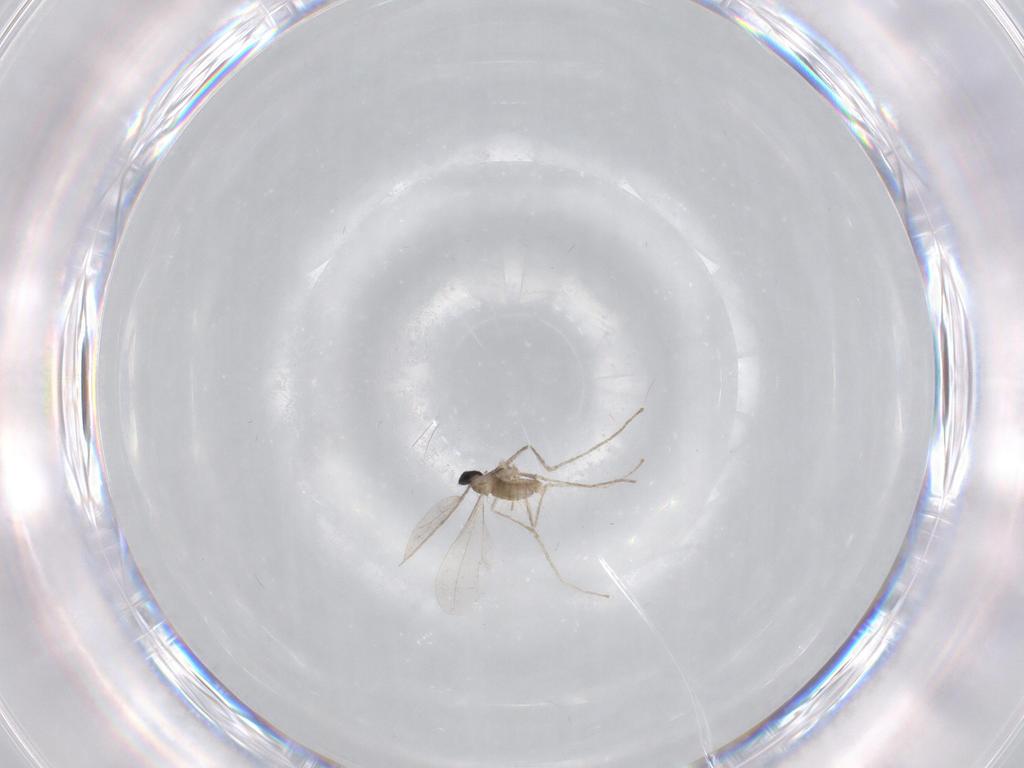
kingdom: Animalia
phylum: Arthropoda
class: Insecta
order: Diptera
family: Cecidomyiidae
